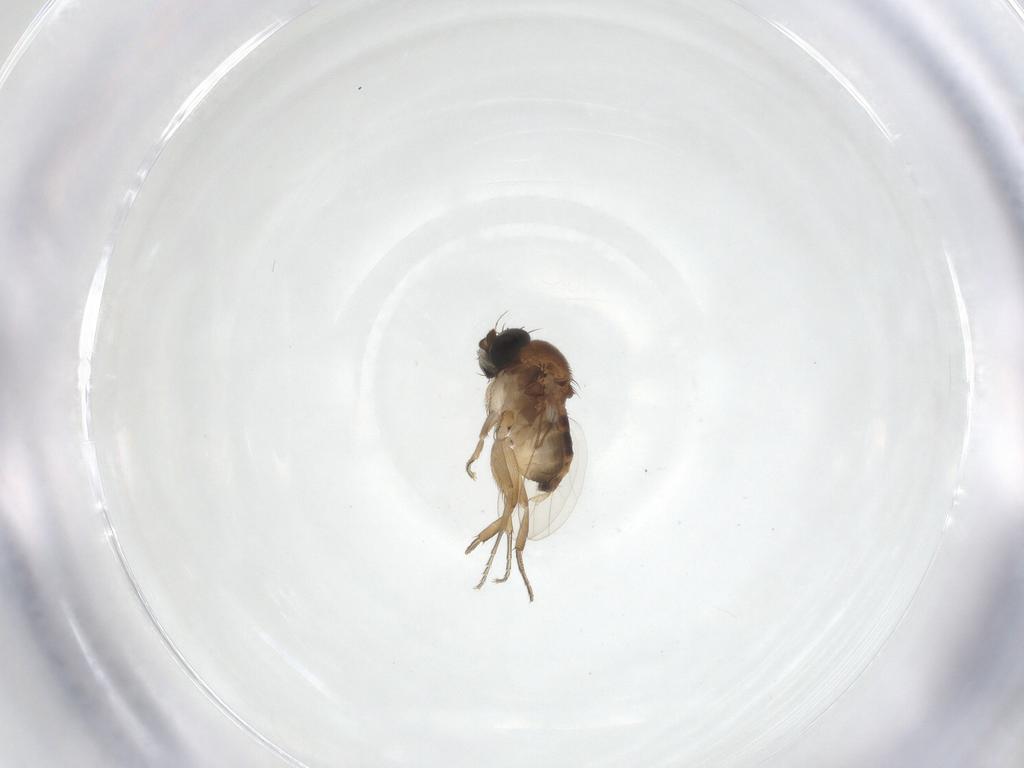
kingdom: Animalia
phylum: Arthropoda
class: Insecta
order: Diptera
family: Phoridae
